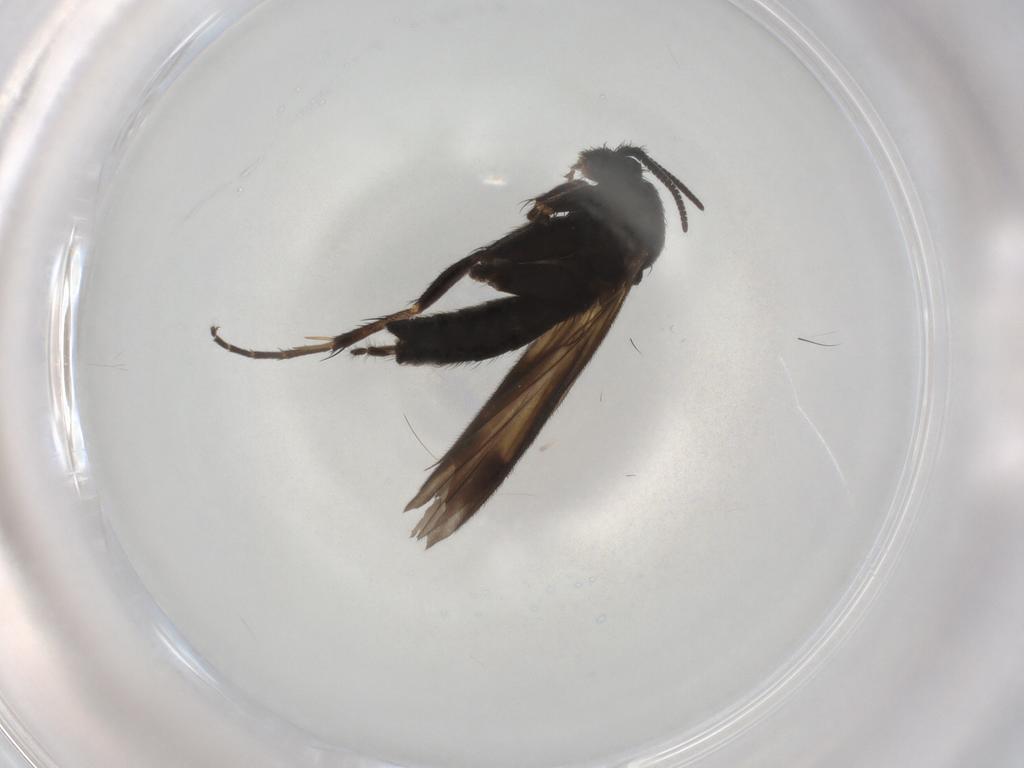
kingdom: Animalia
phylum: Arthropoda
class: Insecta
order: Diptera
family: Mycetophilidae
